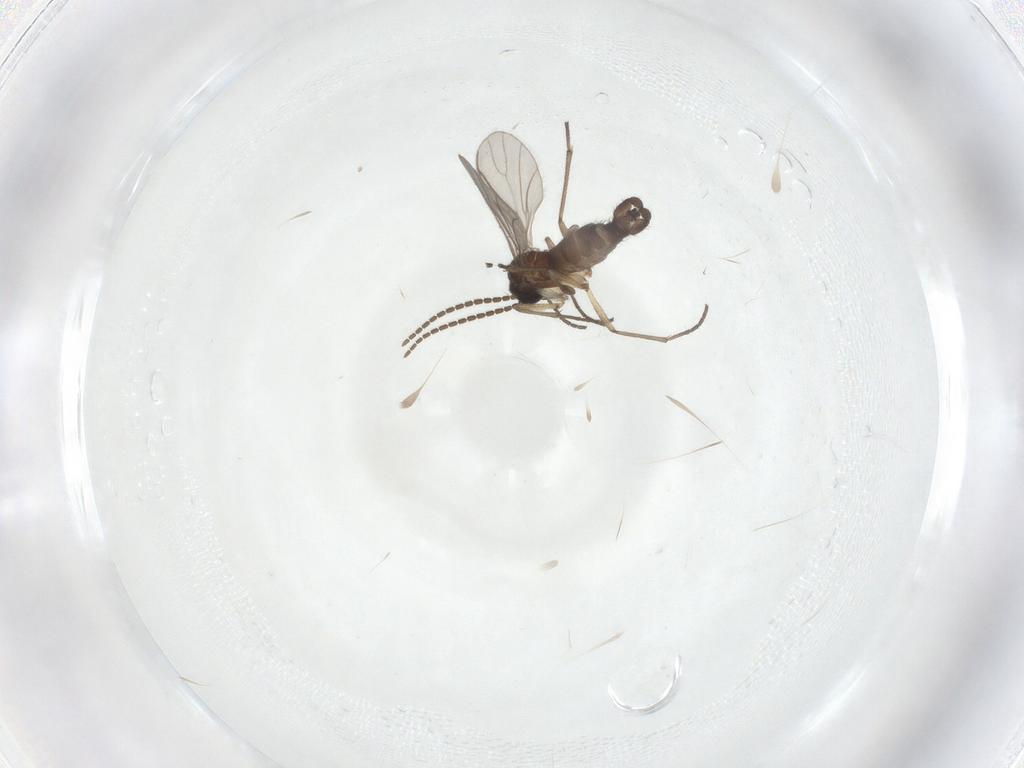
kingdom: Animalia
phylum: Arthropoda
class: Insecta
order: Diptera
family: Sciaridae
